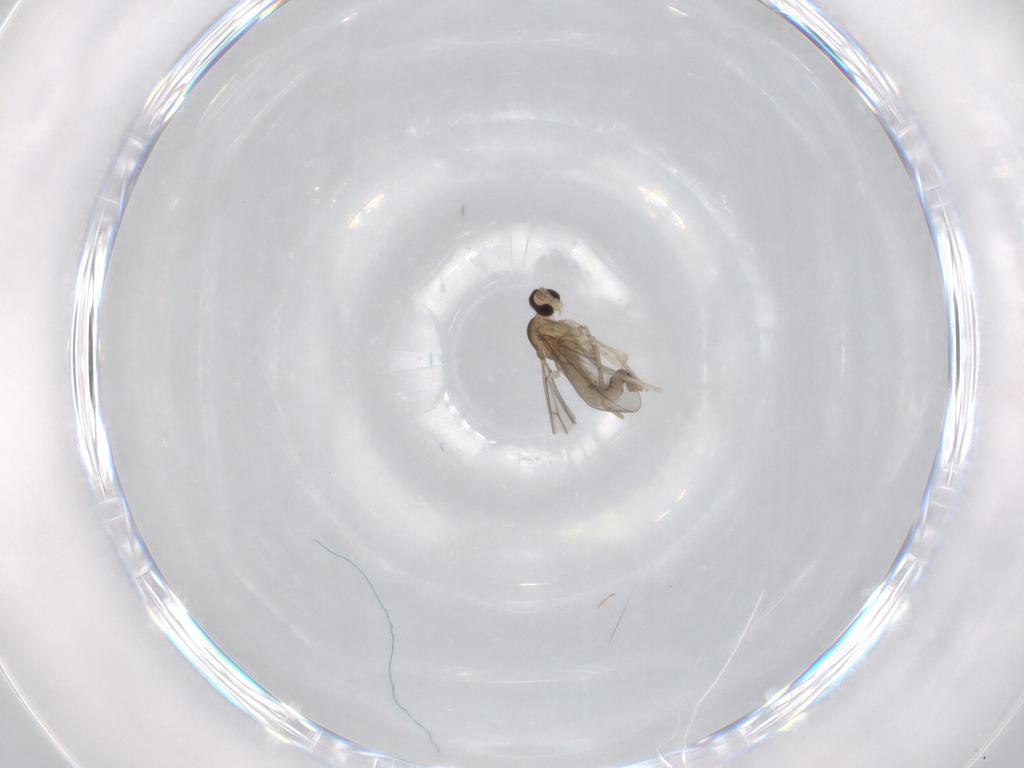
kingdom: Animalia
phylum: Arthropoda
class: Insecta
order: Diptera
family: Cecidomyiidae
